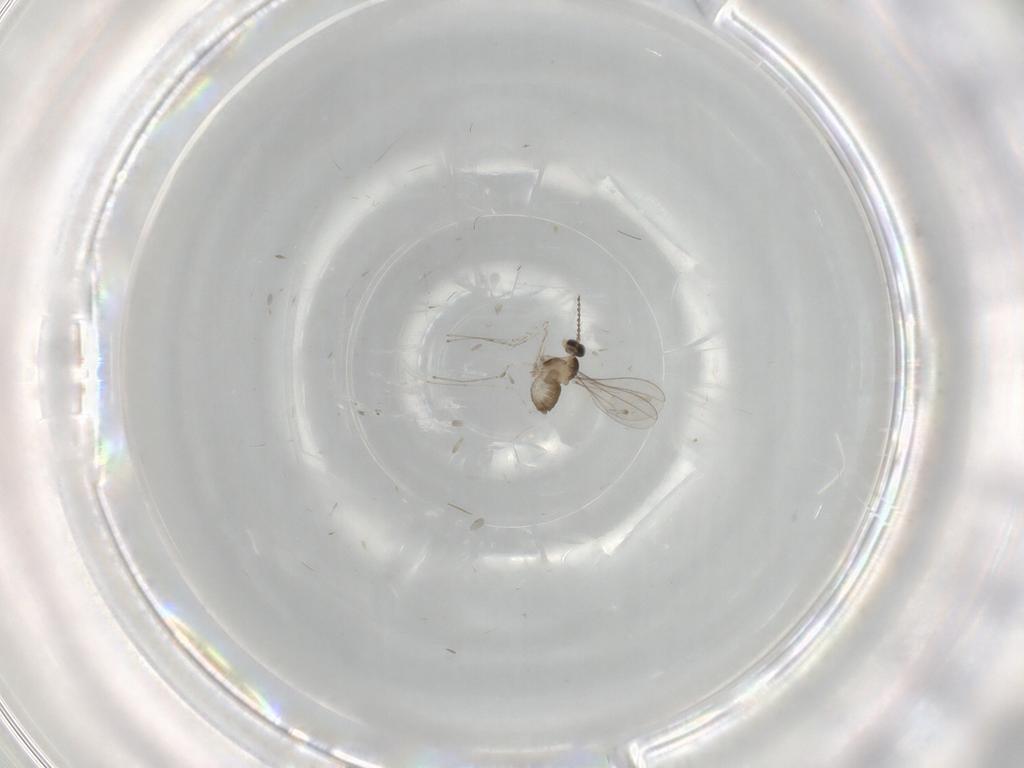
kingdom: Animalia
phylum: Arthropoda
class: Insecta
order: Diptera
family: Cecidomyiidae
